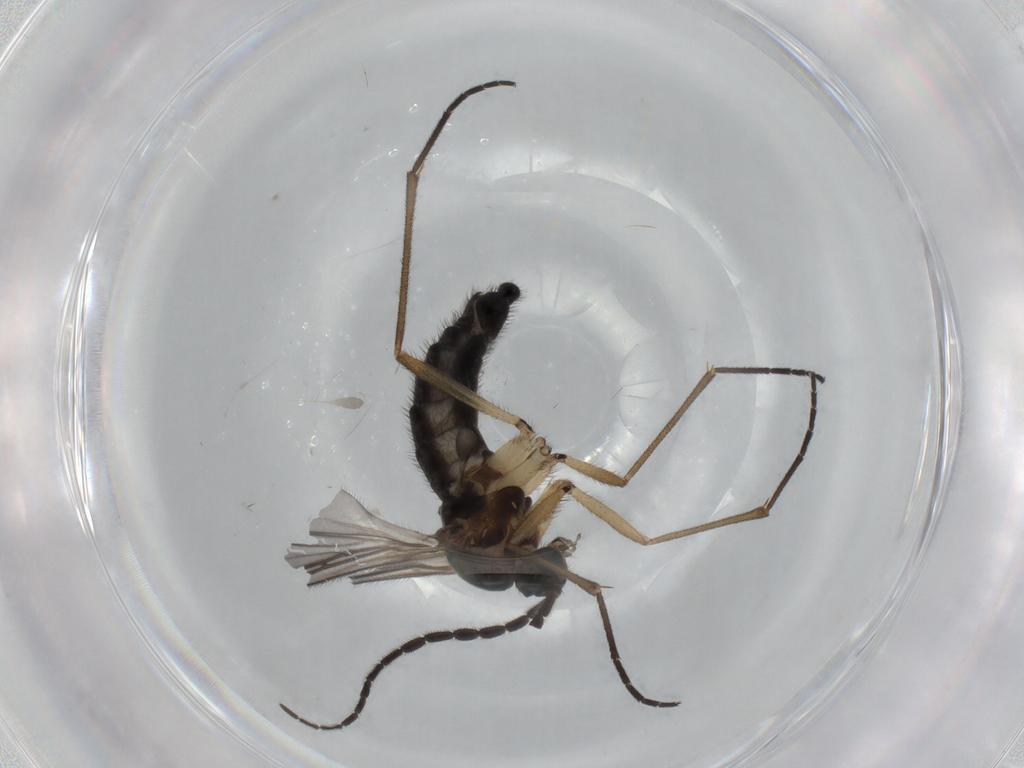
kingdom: Animalia
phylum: Arthropoda
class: Insecta
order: Diptera
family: Sciaridae
